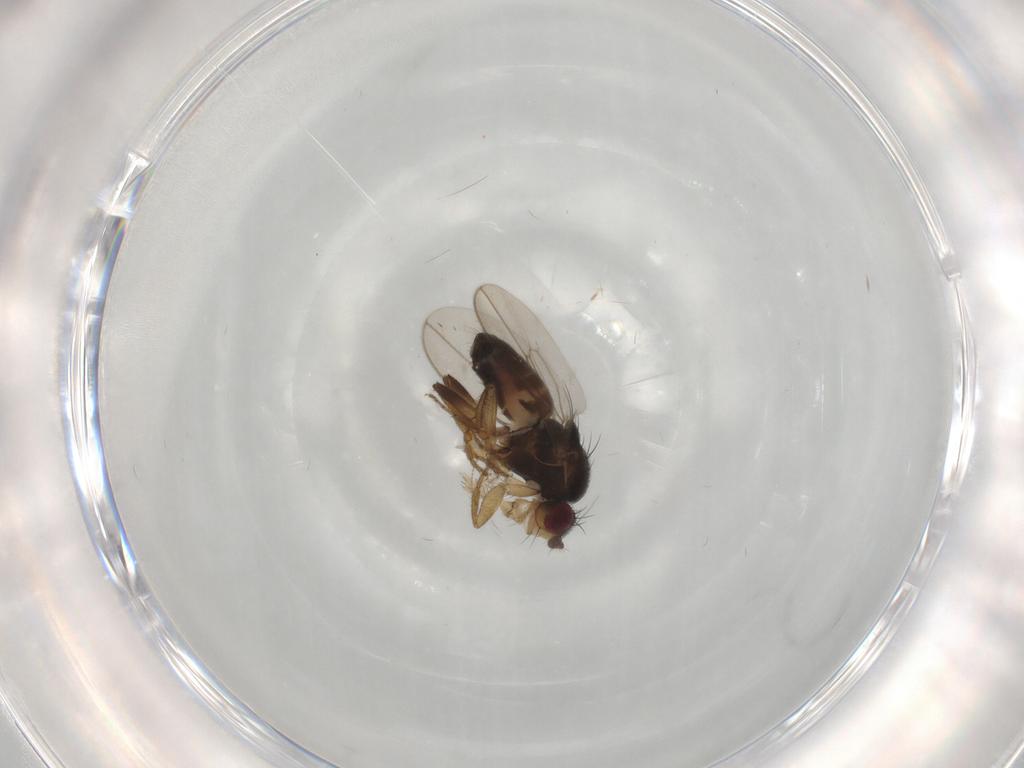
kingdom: Animalia
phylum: Arthropoda
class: Insecta
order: Diptera
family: Sphaeroceridae
